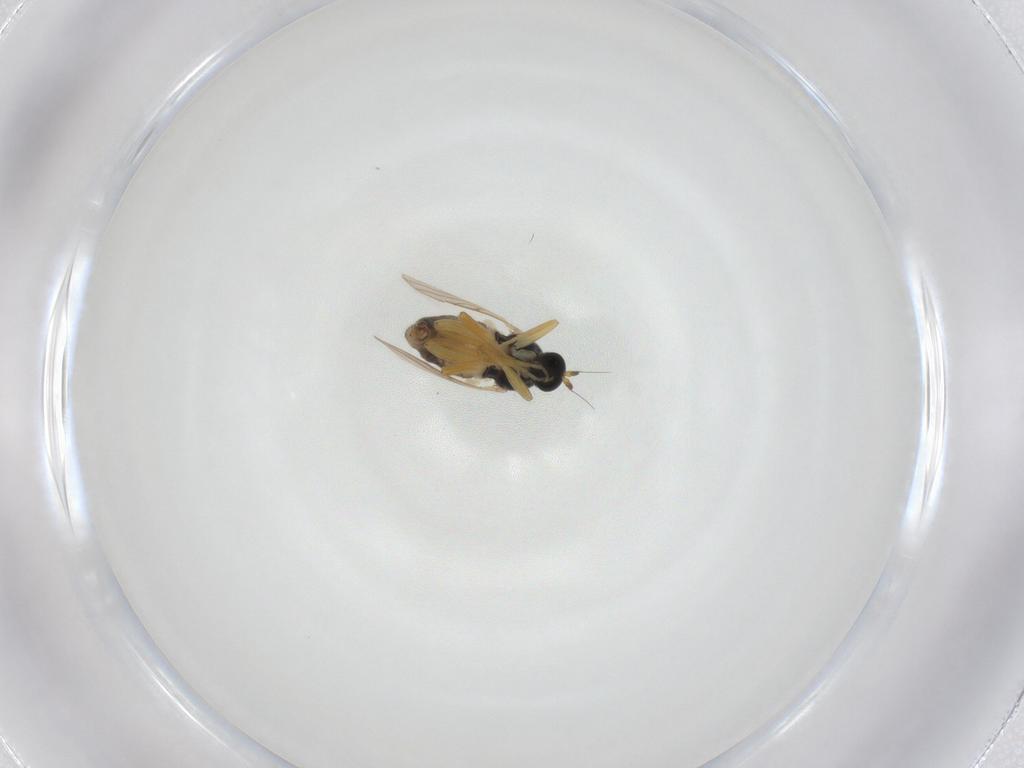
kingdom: Animalia
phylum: Arthropoda
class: Insecta
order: Diptera
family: Hybotidae
